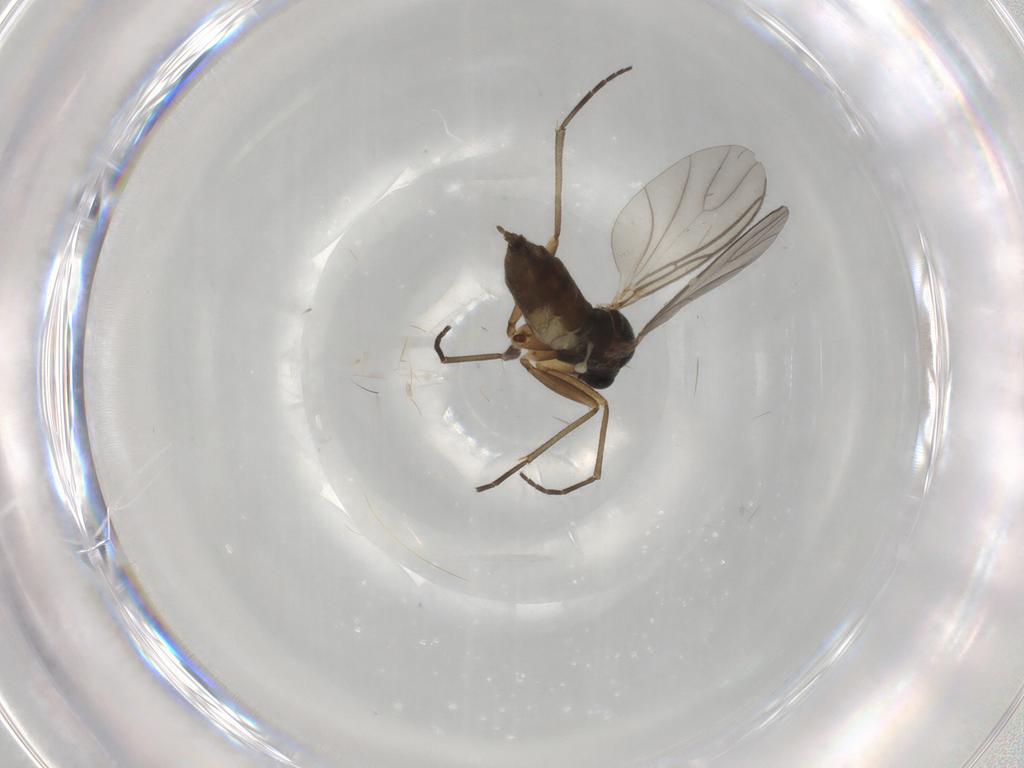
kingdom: Animalia
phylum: Arthropoda
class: Insecta
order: Diptera
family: Sciaridae
